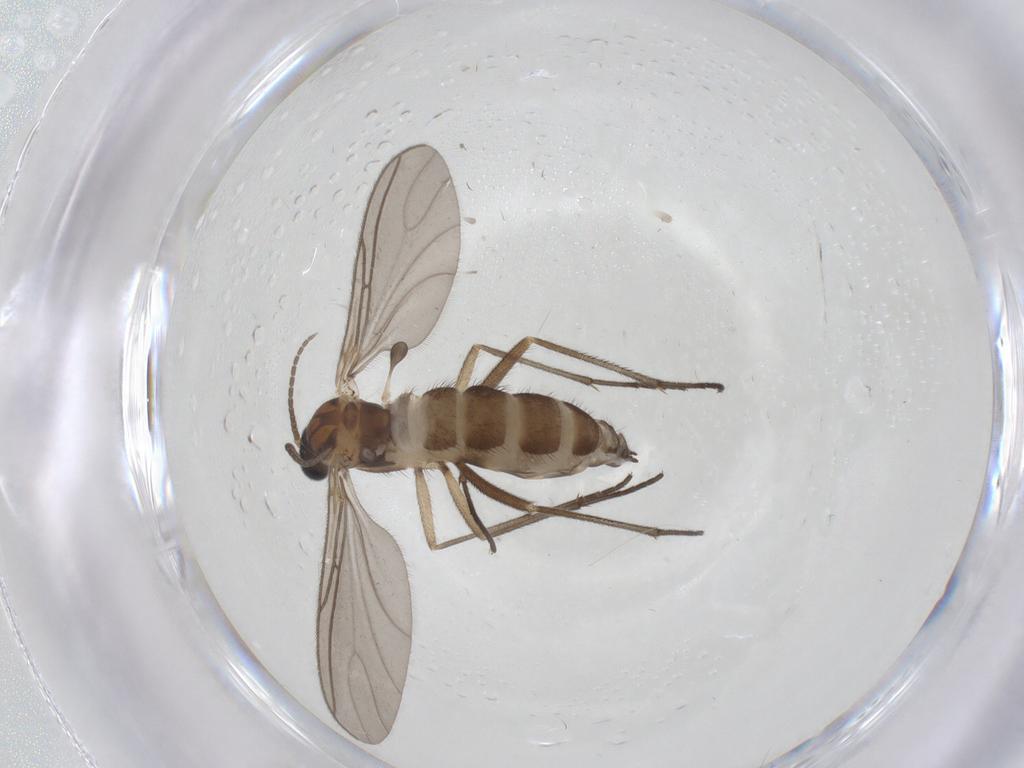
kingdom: Animalia
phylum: Arthropoda
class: Insecta
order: Diptera
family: Sciaridae
